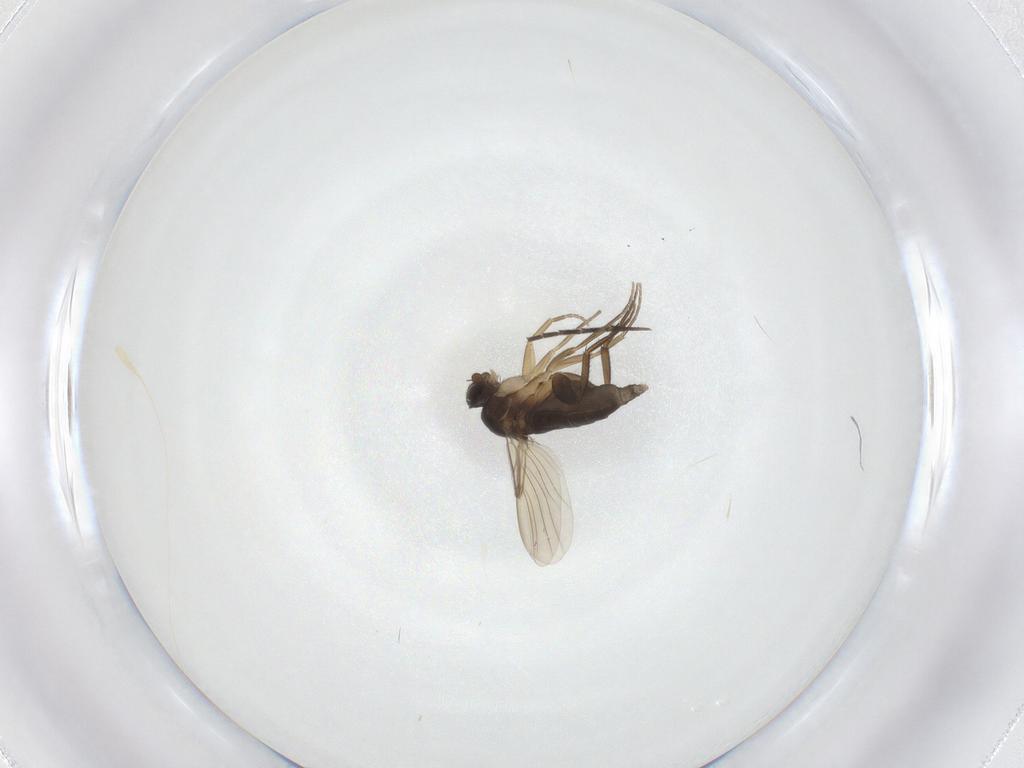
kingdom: Animalia
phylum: Arthropoda
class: Insecta
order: Diptera
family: Phoridae
